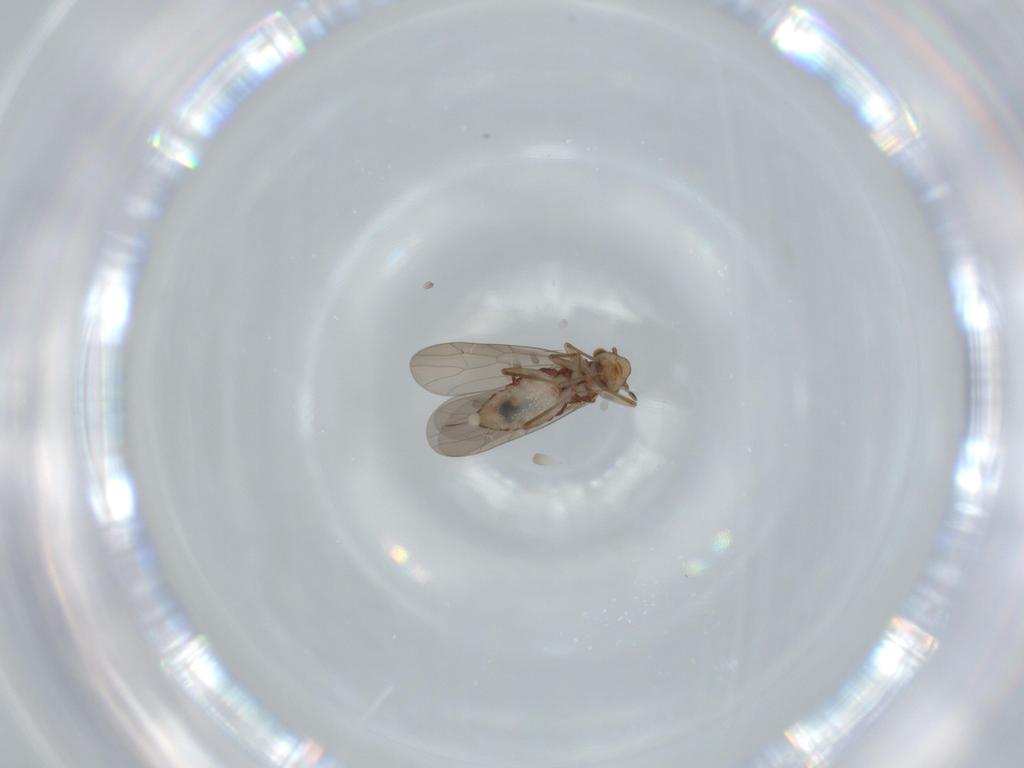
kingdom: Animalia
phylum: Arthropoda
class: Insecta
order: Psocodea
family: Lepidopsocidae
